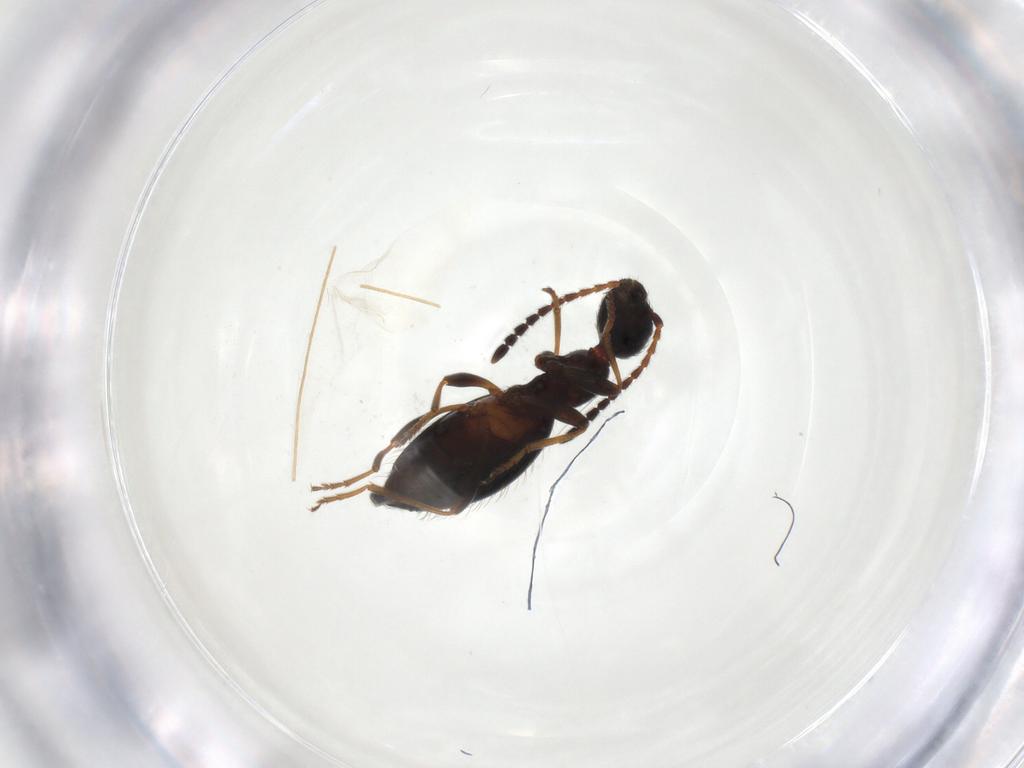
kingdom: Animalia
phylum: Arthropoda
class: Insecta
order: Coleoptera
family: Anthicidae
